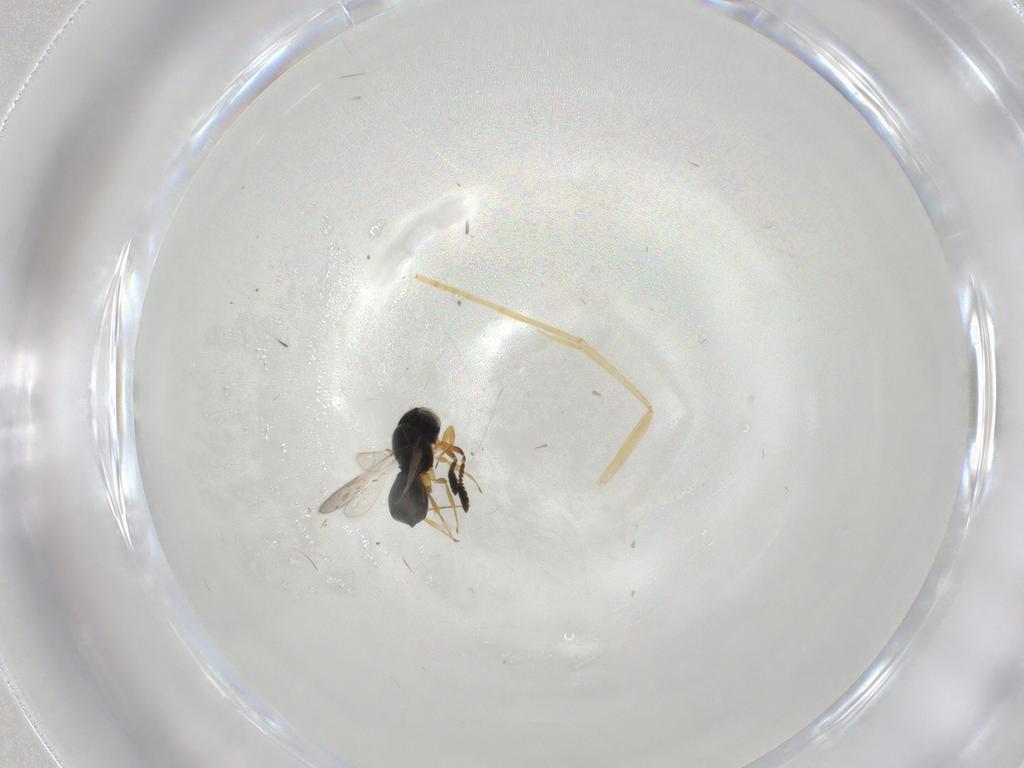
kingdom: Animalia
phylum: Arthropoda
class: Insecta
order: Hymenoptera
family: Scelionidae
